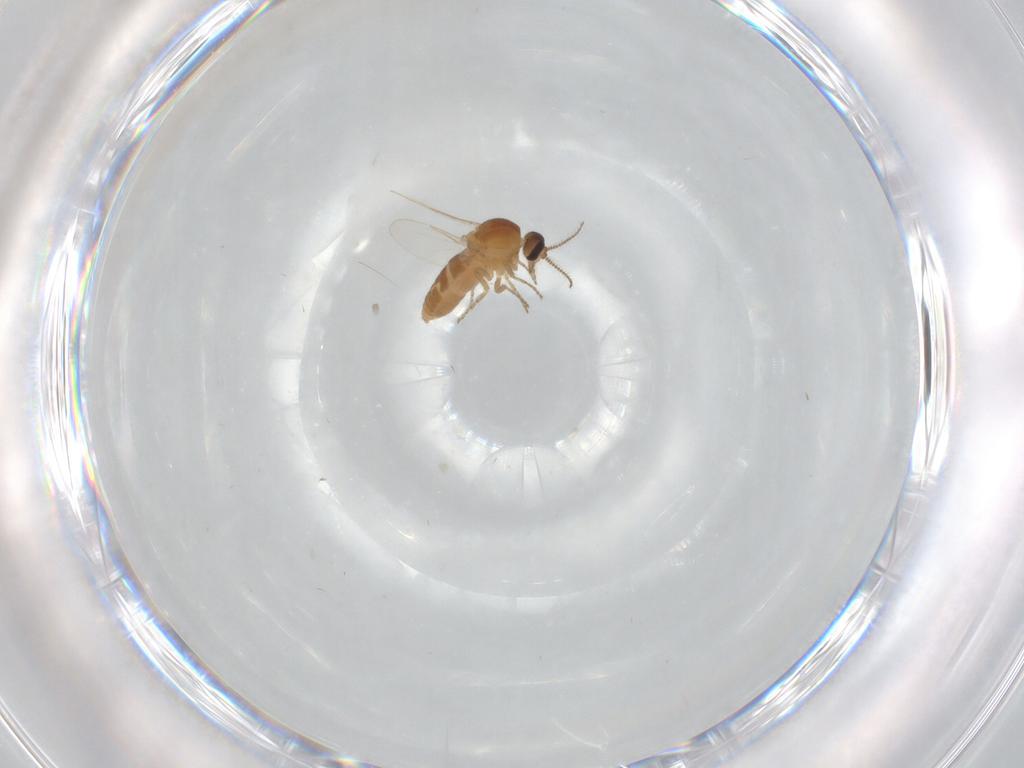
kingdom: Animalia
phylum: Arthropoda
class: Insecta
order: Diptera
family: Ceratopogonidae
